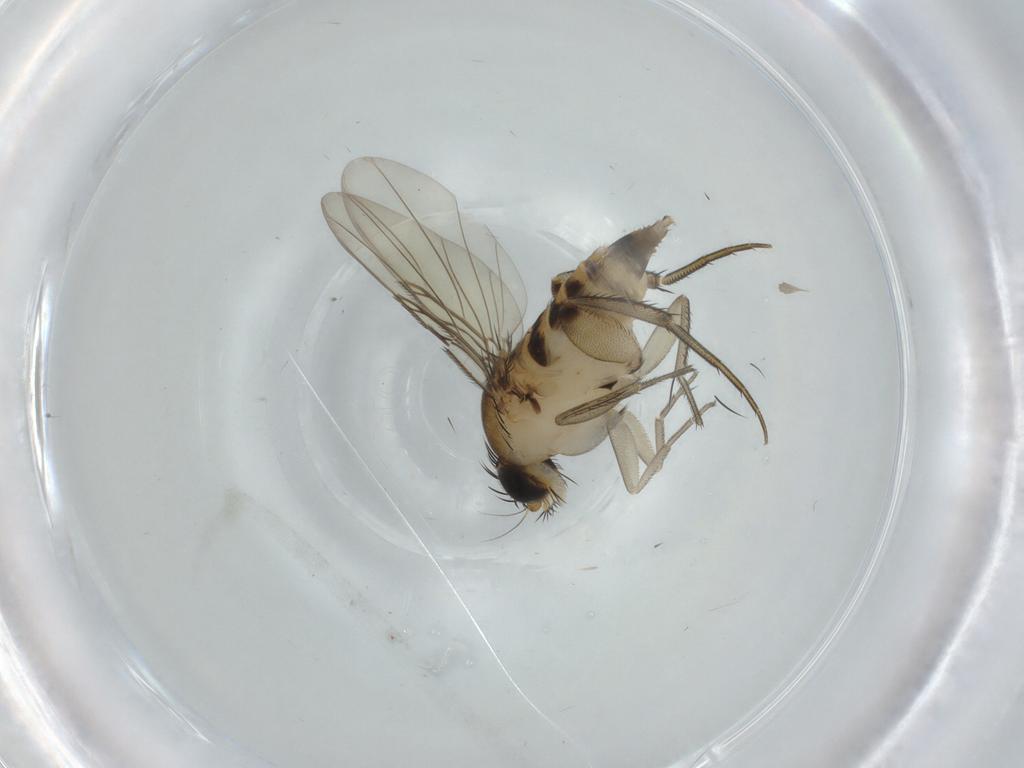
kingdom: Animalia
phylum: Arthropoda
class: Insecta
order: Diptera
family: Phoridae
